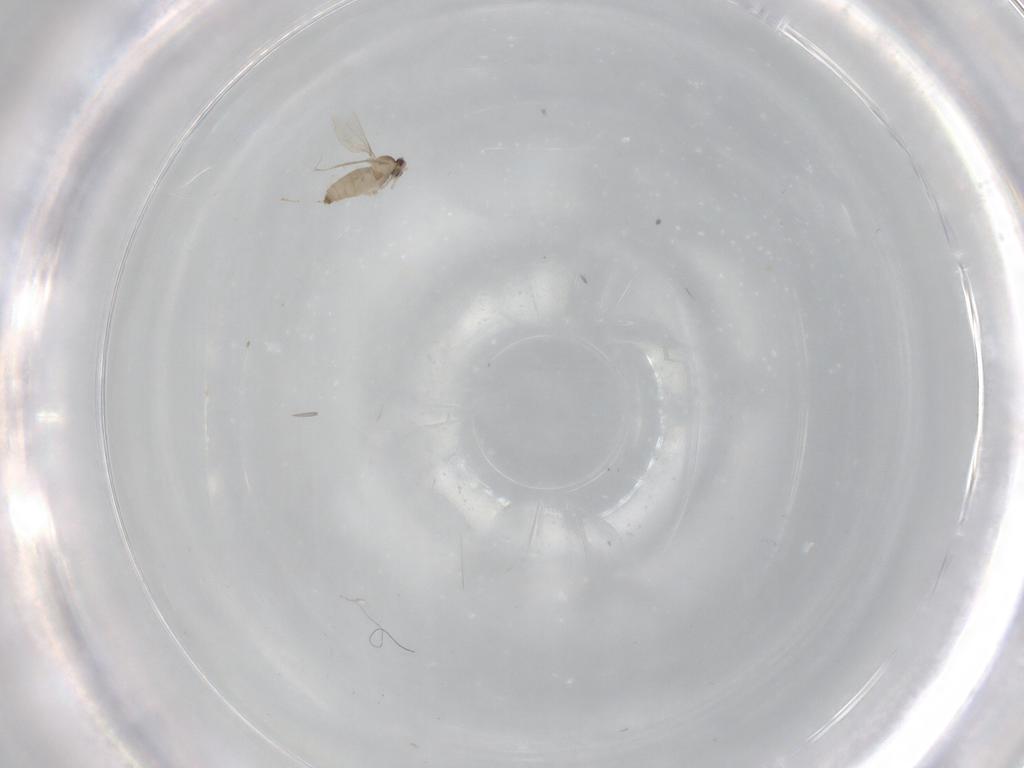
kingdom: Animalia
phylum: Arthropoda
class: Insecta
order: Diptera
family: Cecidomyiidae
